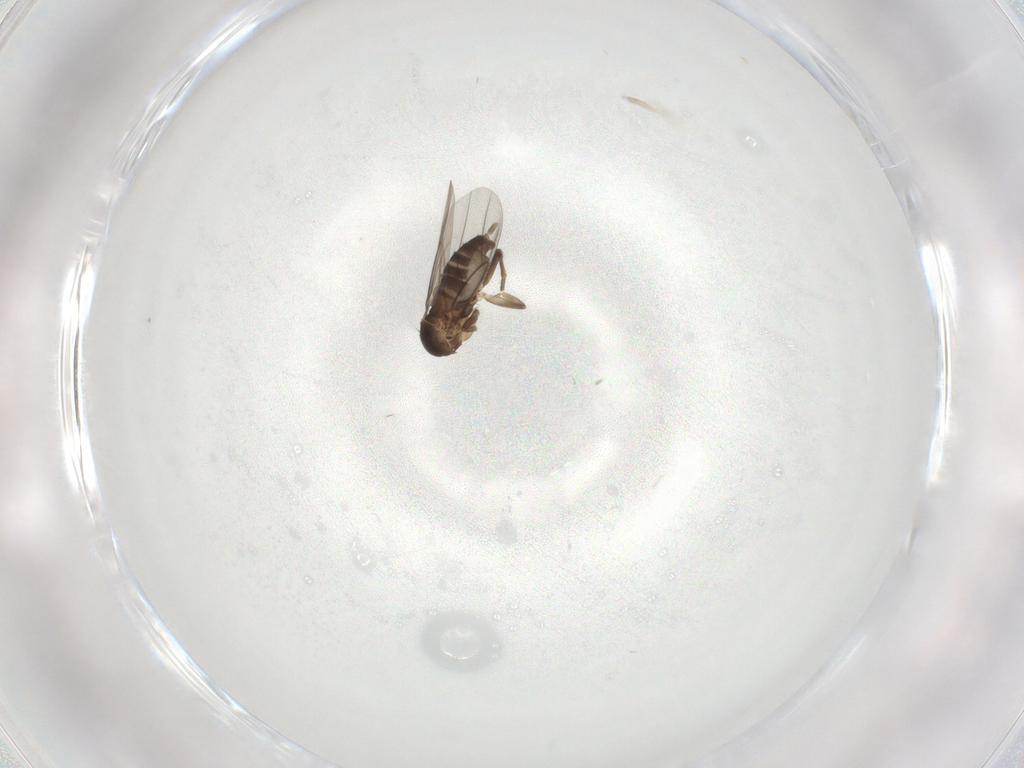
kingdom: Animalia
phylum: Arthropoda
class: Insecta
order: Diptera
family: Phoridae
